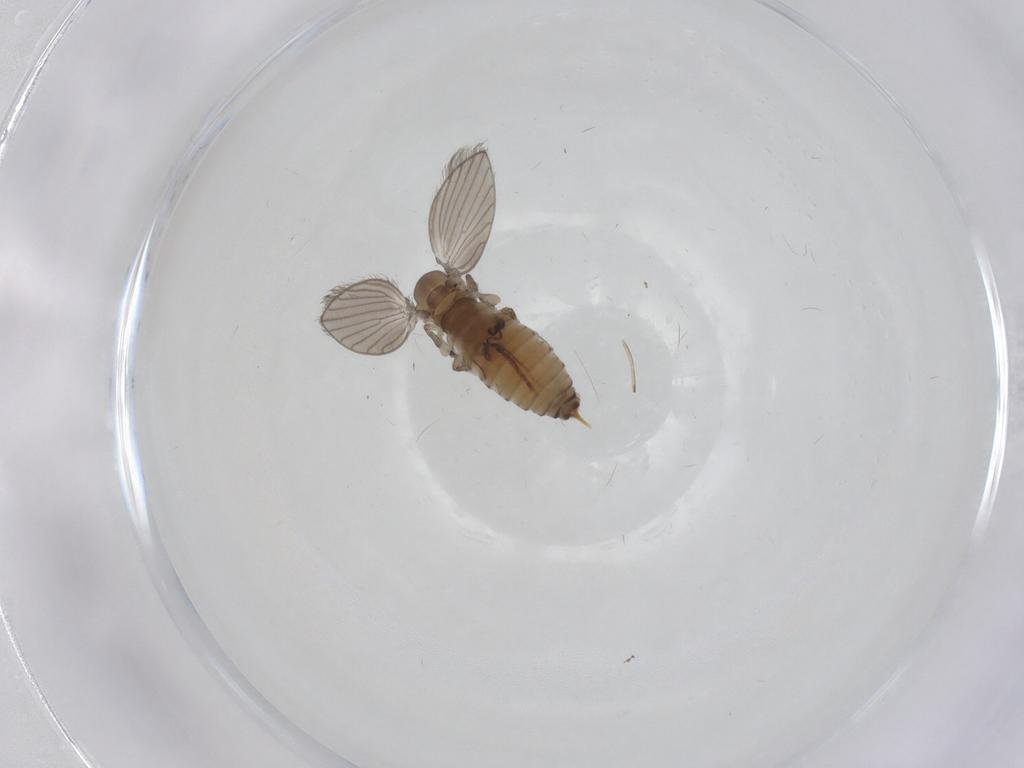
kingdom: Animalia
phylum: Arthropoda
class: Insecta
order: Diptera
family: Psychodidae
